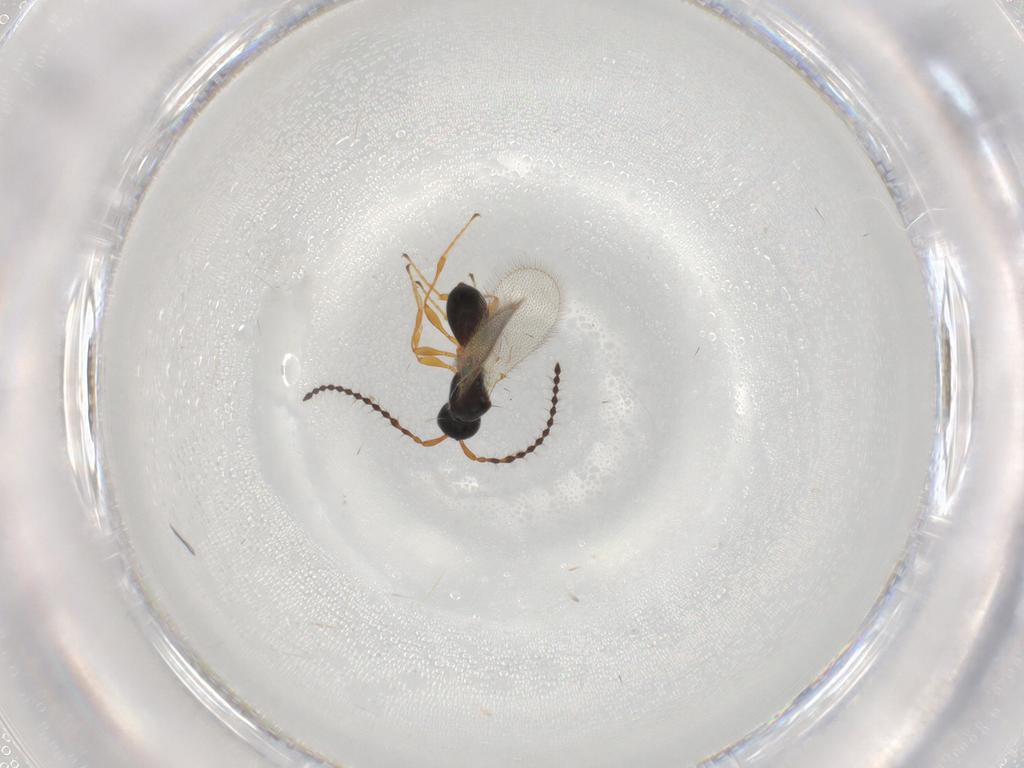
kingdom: Animalia
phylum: Arthropoda
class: Insecta
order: Hymenoptera
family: Diapriidae
